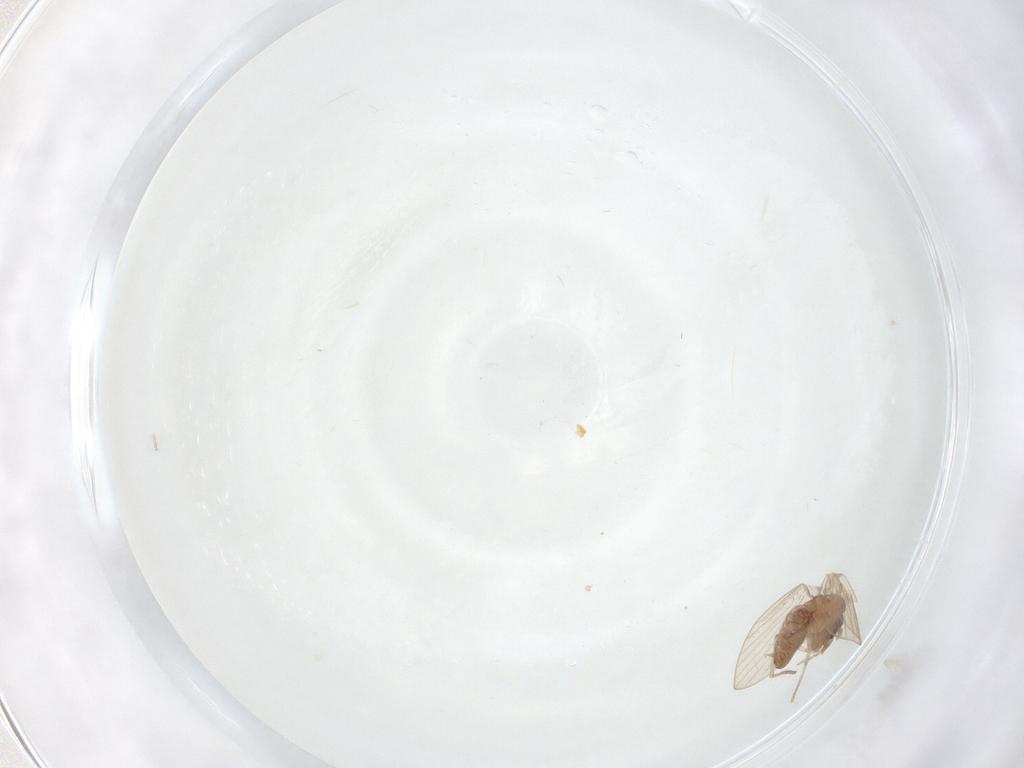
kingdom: Animalia
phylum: Arthropoda
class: Insecta
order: Diptera
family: Psychodidae
